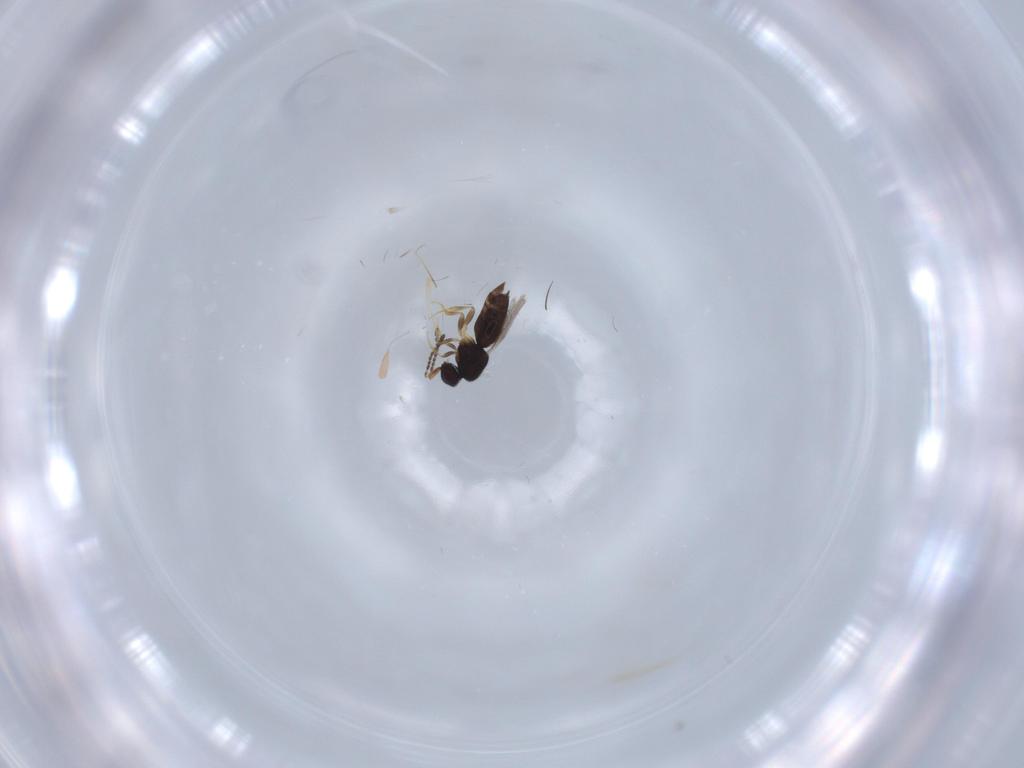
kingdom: Animalia
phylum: Arthropoda
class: Insecta
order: Hymenoptera
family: Ceraphronidae
